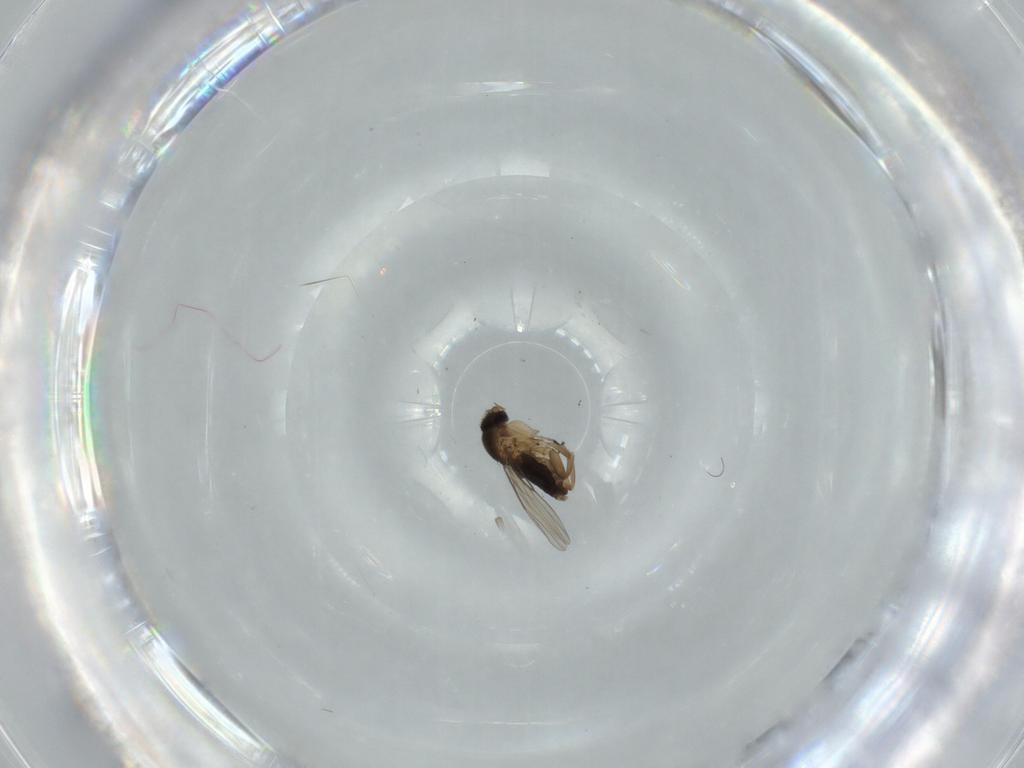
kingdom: Animalia
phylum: Arthropoda
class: Insecta
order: Diptera
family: Phoridae
